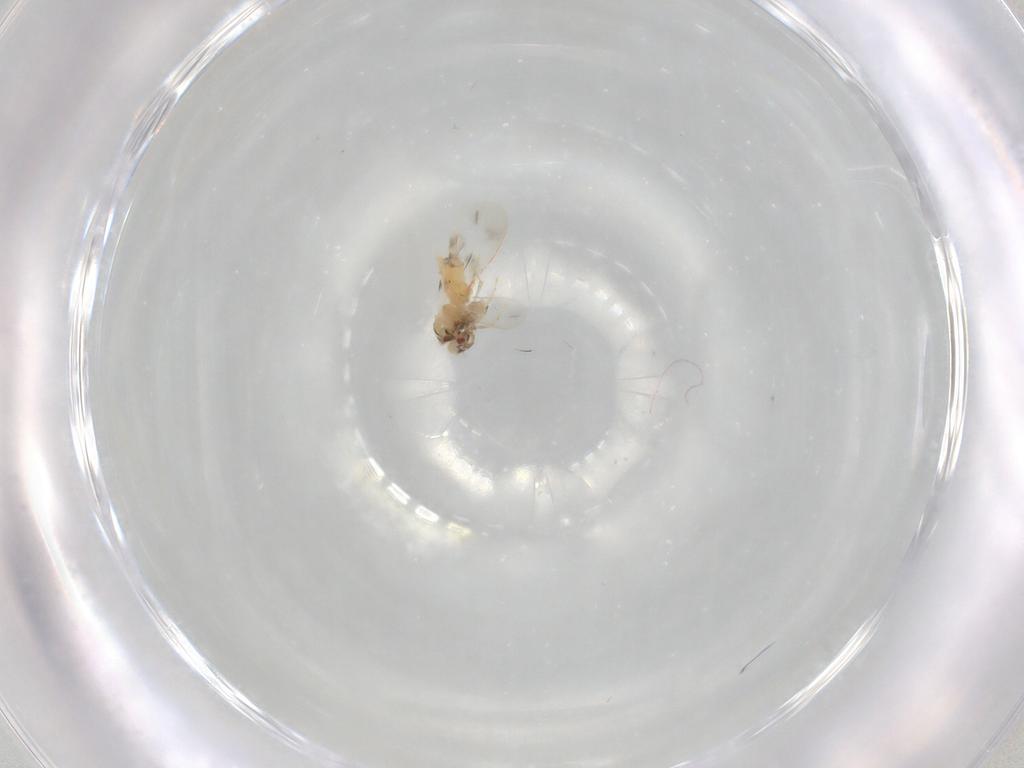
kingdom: Animalia
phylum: Arthropoda
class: Insecta
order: Hemiptera
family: Aleyrodidae
